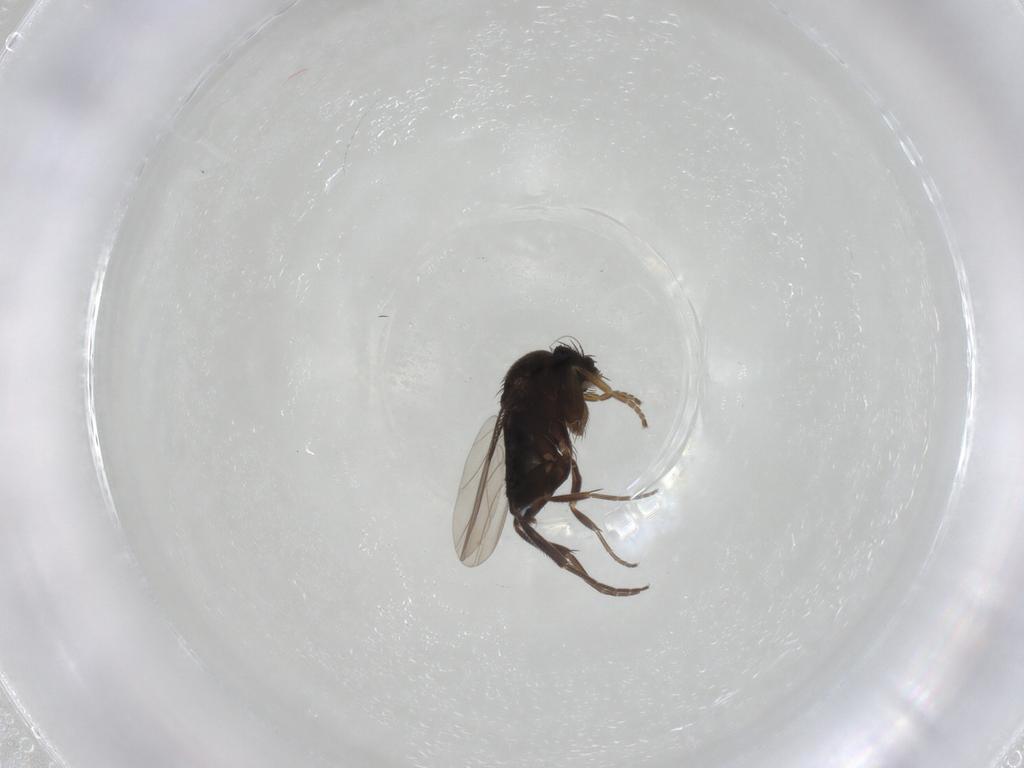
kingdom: Animalia
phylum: Arthropoda
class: Insecta
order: Diptera
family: Phoridae
